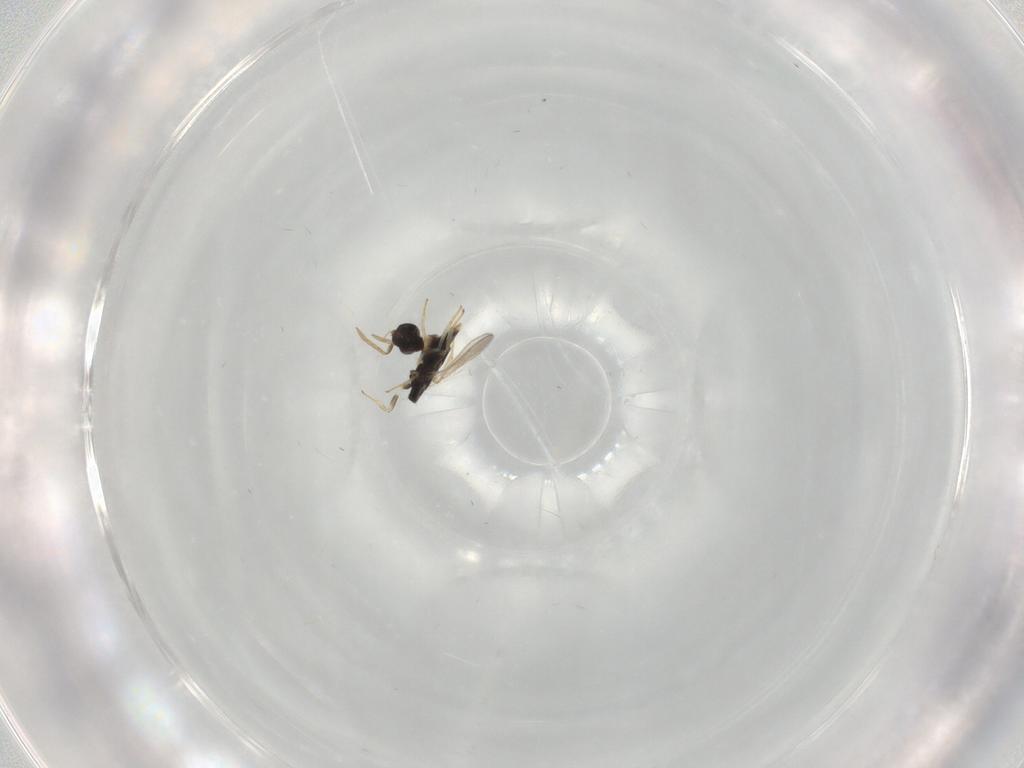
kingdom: Animalia
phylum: Arthropoda
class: Insecta
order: Hymenoptera
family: Aphelinidae
